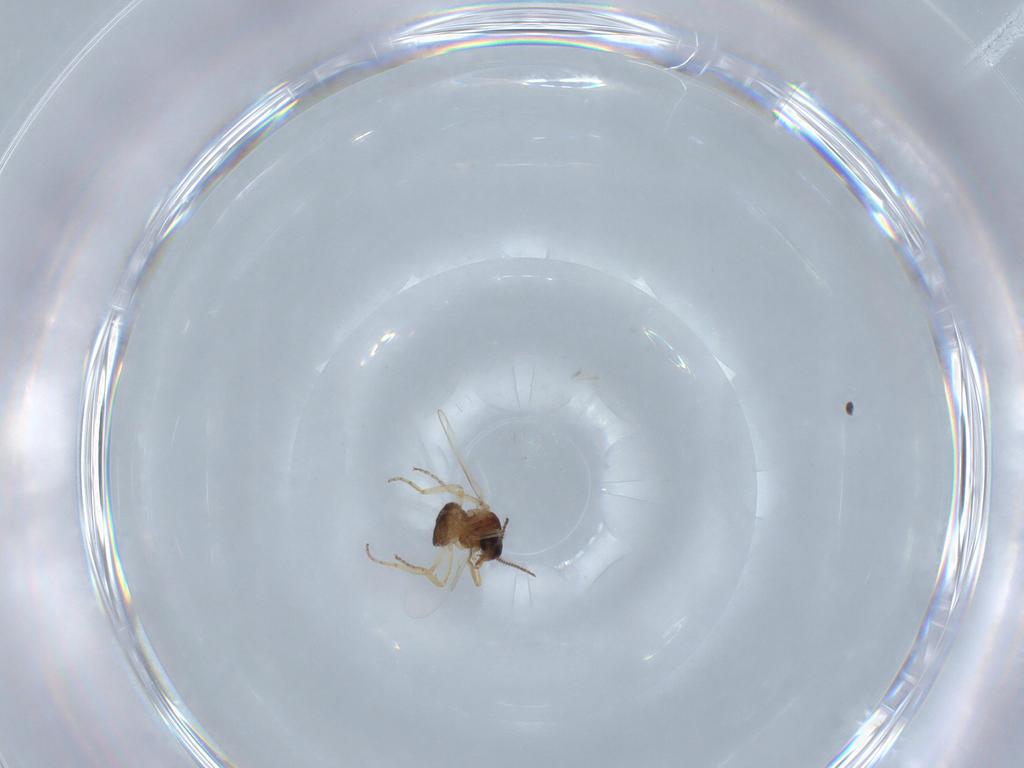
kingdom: Animalia
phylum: Arthropoda
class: Insecta
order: Diptera
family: Ceratopogonidae
